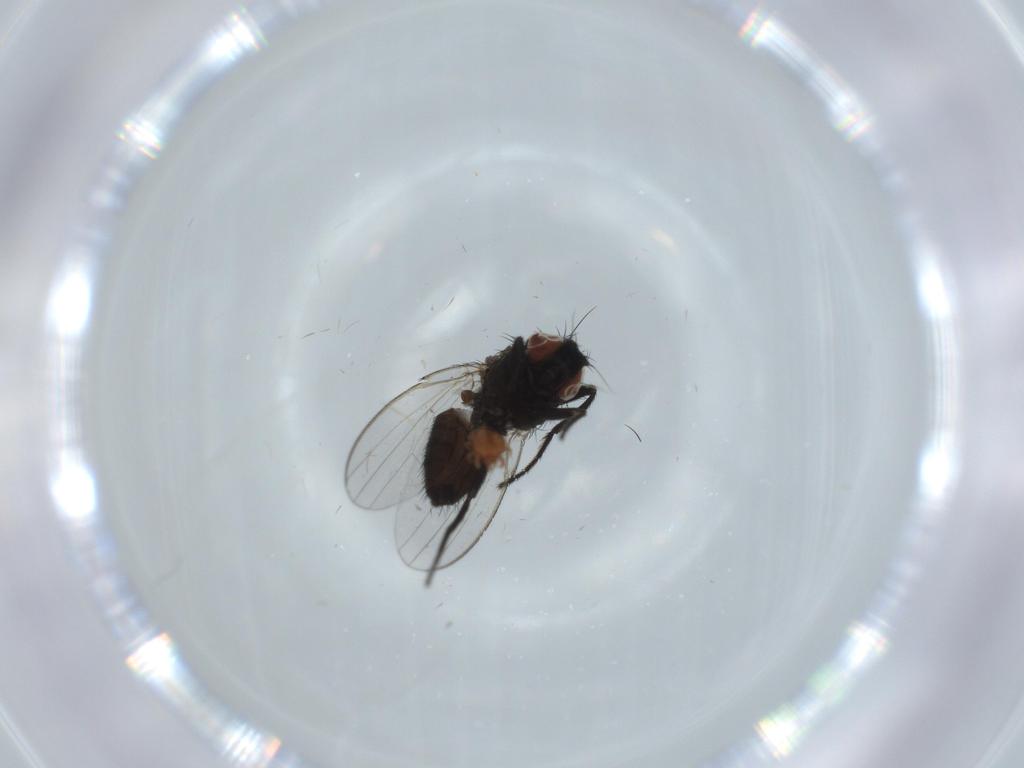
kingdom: Animalia
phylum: Arthropoda
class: Insecta
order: Diptera
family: Milichiidae
